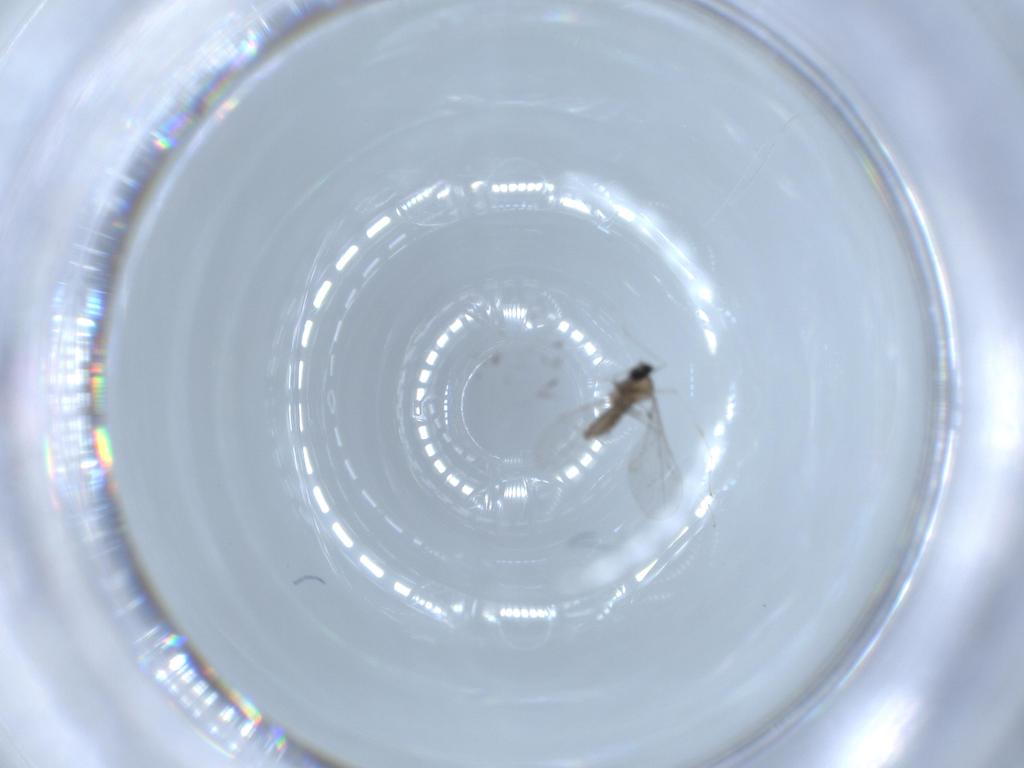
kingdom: Animalia
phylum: Arthropoda
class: Insecta
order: Diptera
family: Cecidomyiidae
